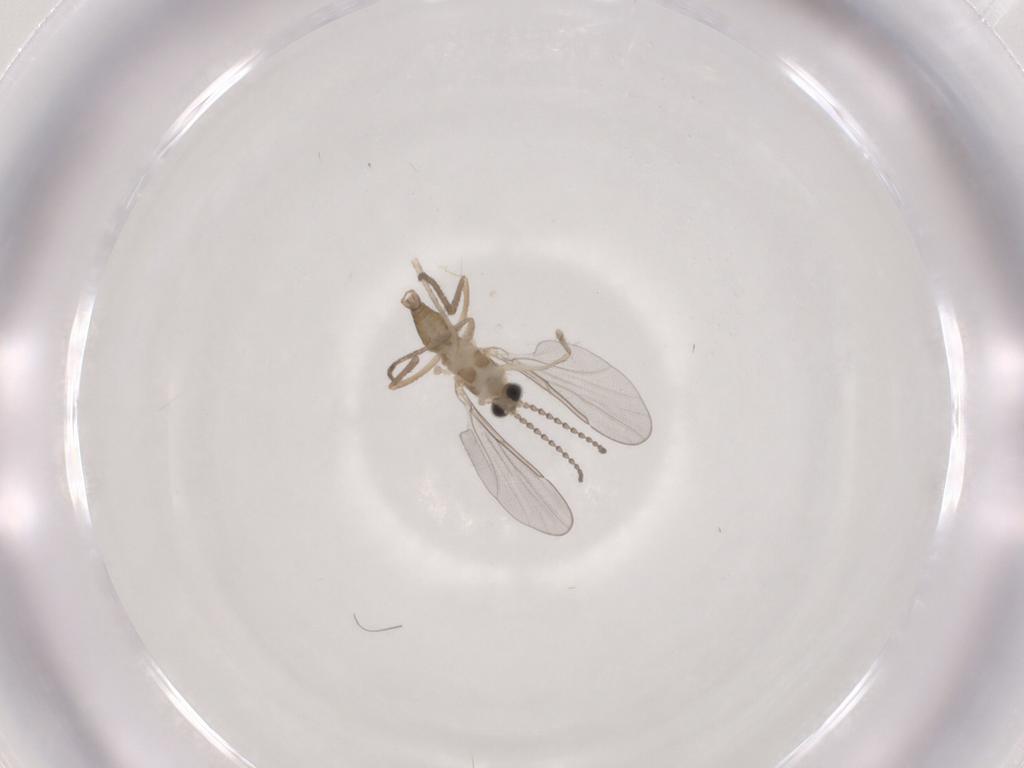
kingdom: Animalia
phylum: Arthropoda
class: Insecta
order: Diptera
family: Cecidomyiidae
